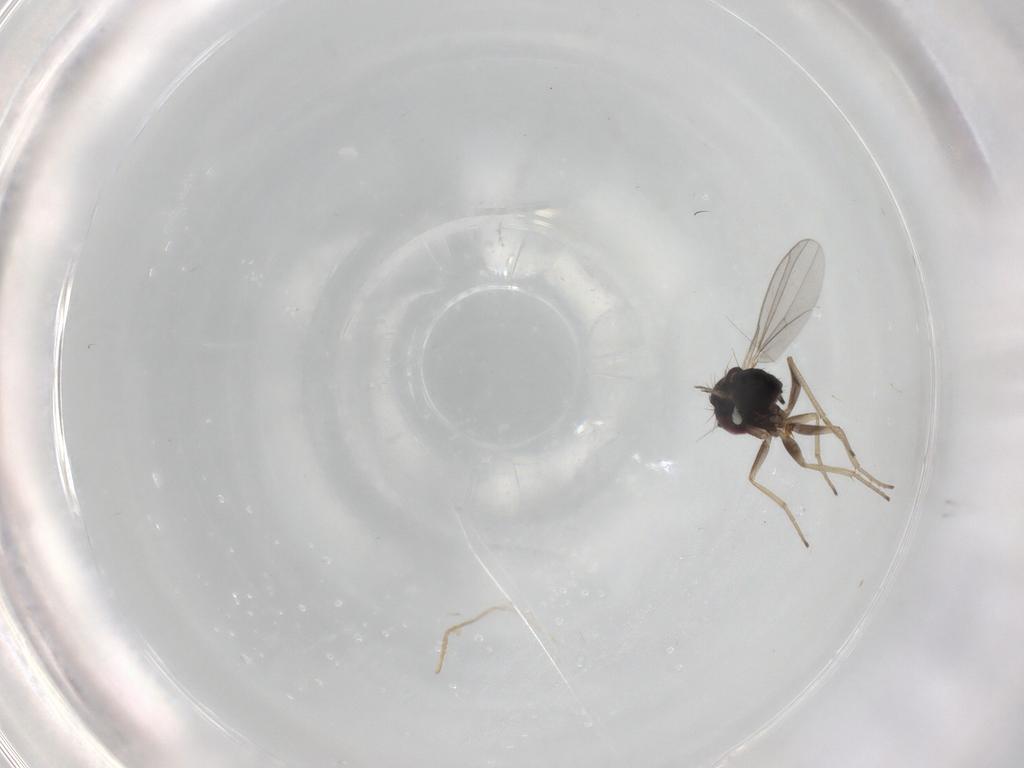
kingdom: Animalia
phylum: Arthropoda
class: Insecta
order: Diptera
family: Dolichopodidae
